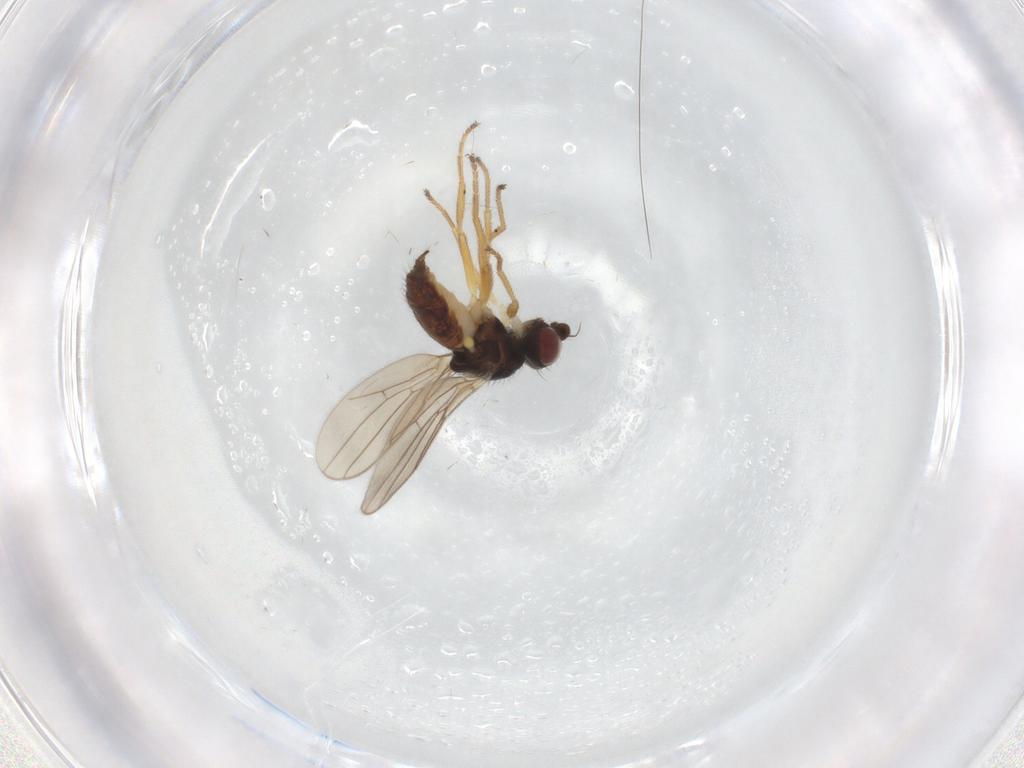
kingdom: Animalia
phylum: Arthropoda
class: Insecta
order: Diptera
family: Chloropidae
